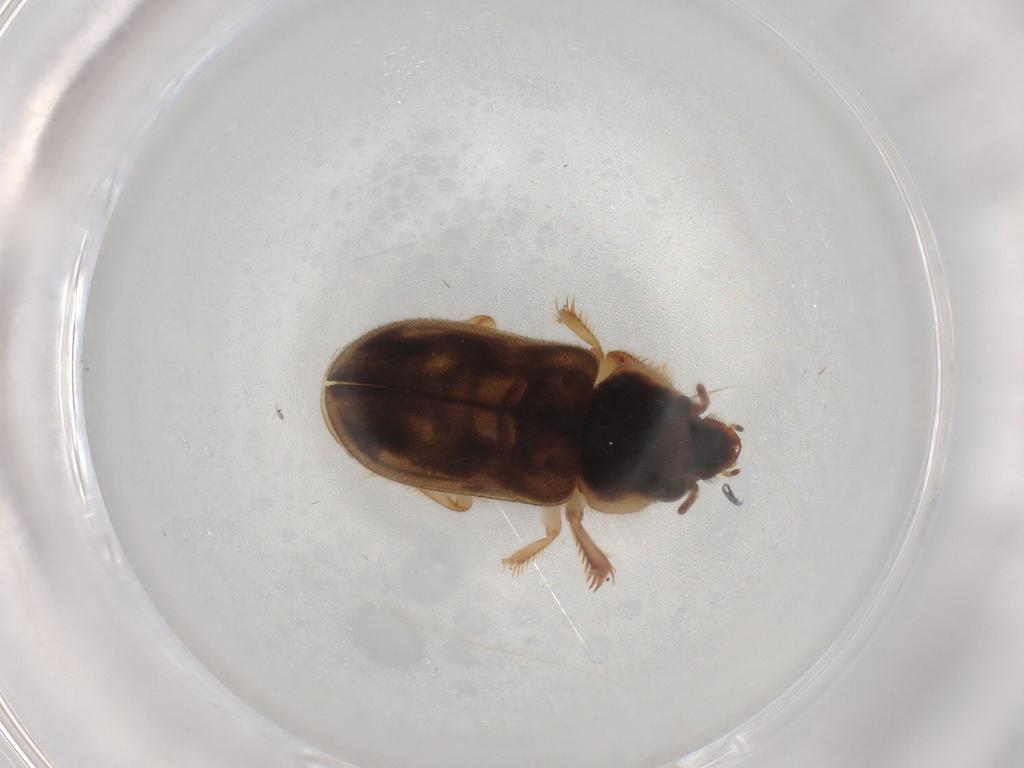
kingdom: Animalia
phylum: Arthropoda
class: Insecta
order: Coleoptera
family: Heteroceridae
